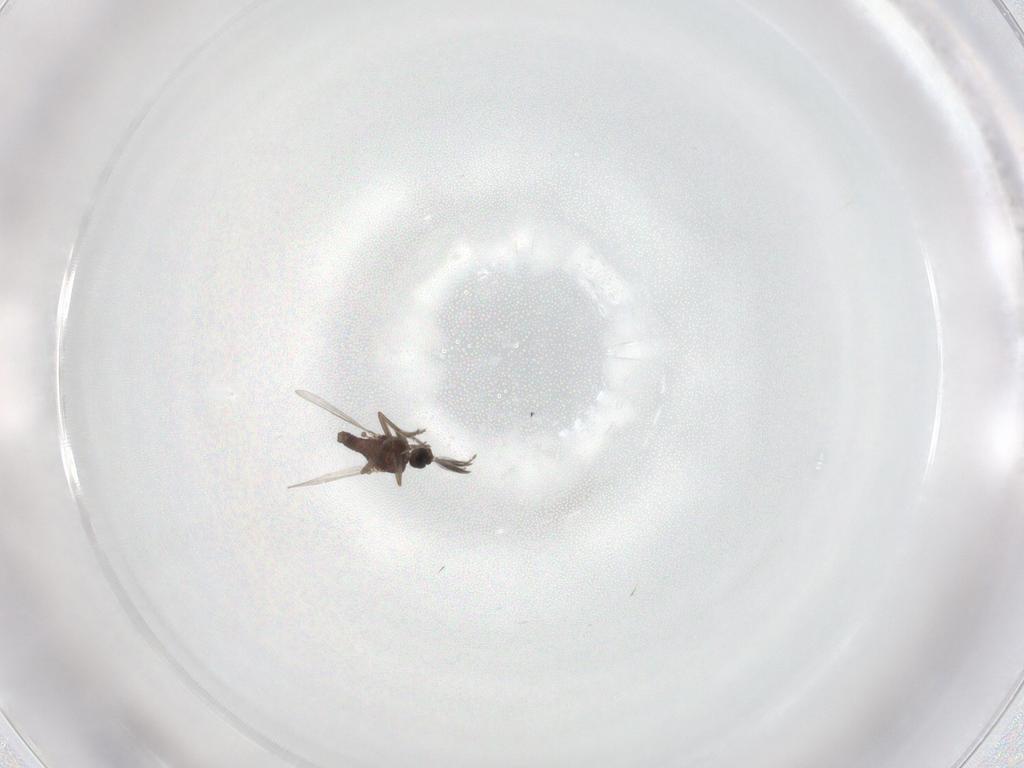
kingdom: Animalia
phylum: Arthropoda
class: Insecta
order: Diptera
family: Ceratopogonidae
